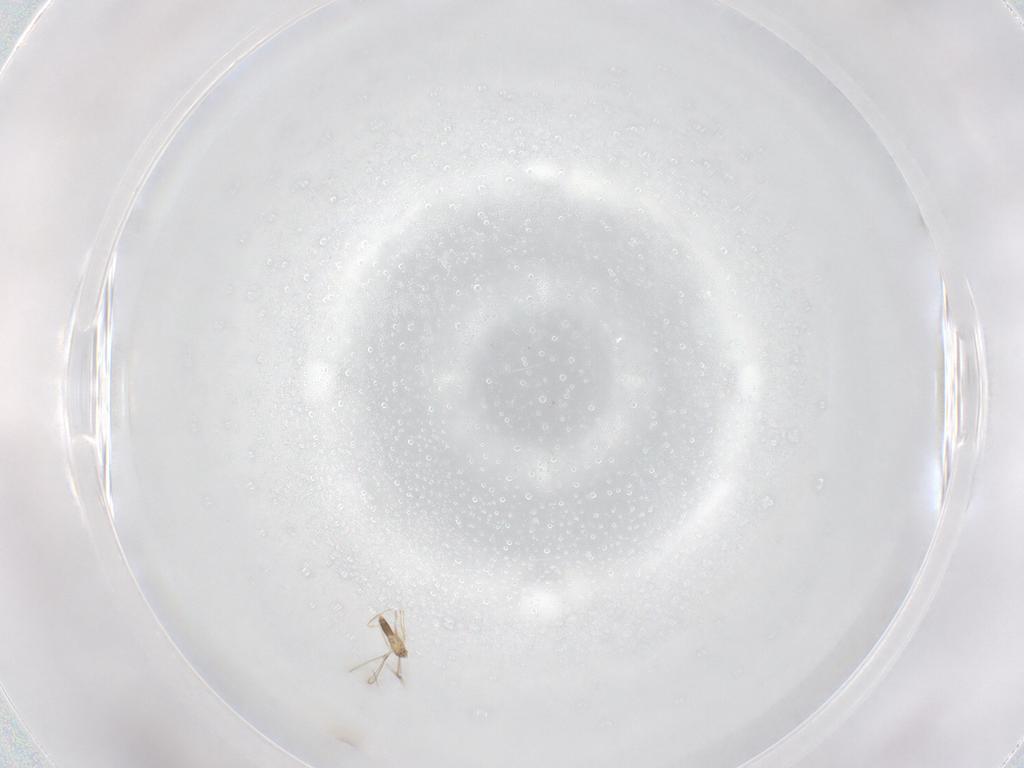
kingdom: Animalia
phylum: Arthropoda
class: Insecta
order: Hymenoptera
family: Mymaridae
